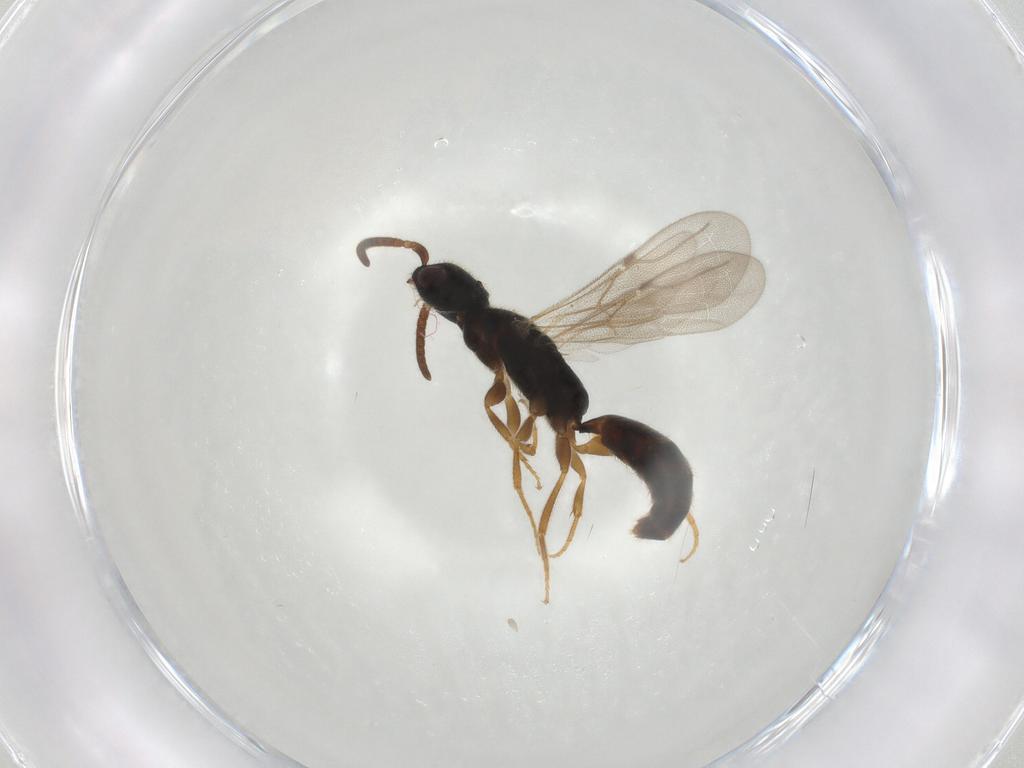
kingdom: Animalia
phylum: Arthropoda
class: Insecta
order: Hymenoptera
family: Bethylidae
